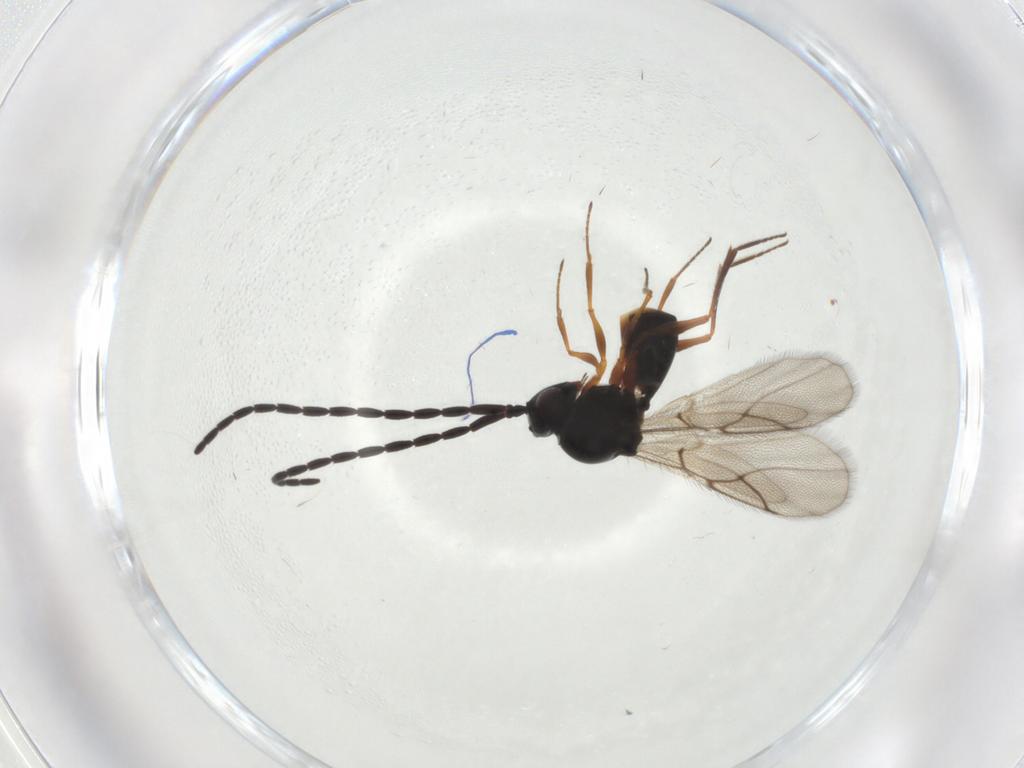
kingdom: Animalia
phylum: Arthropoda
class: Insecta
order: Hymenoptera
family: Figitidae
